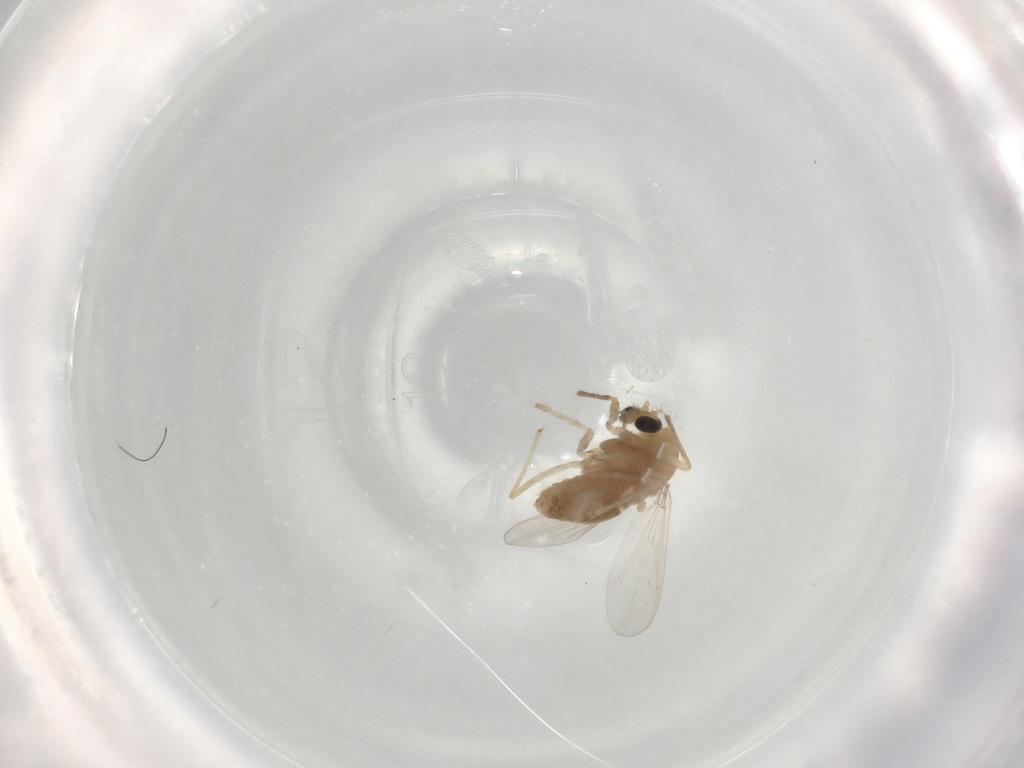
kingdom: Animalia
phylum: Arthropoda
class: Insecta
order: Diptera
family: Chironomidae
